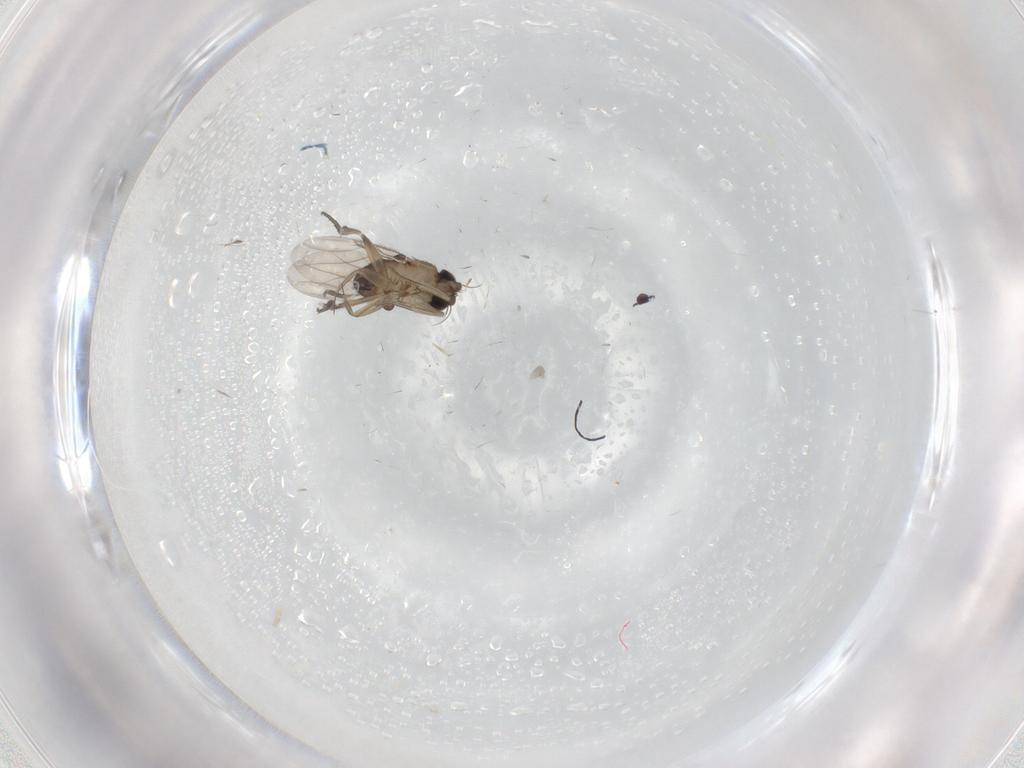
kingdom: Animalia
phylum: Arthropoda
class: Insecta
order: Diptera
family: Phoridae
